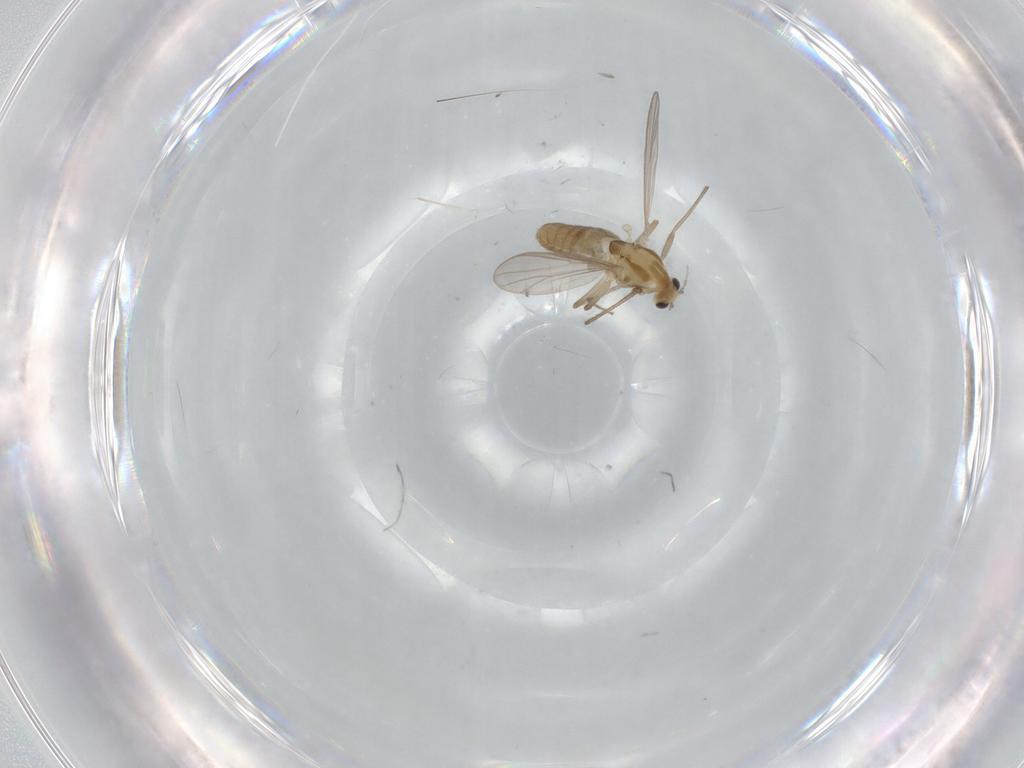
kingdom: Animalia
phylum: Arthropoda
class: Insecta
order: Diptera
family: Chironomidae
